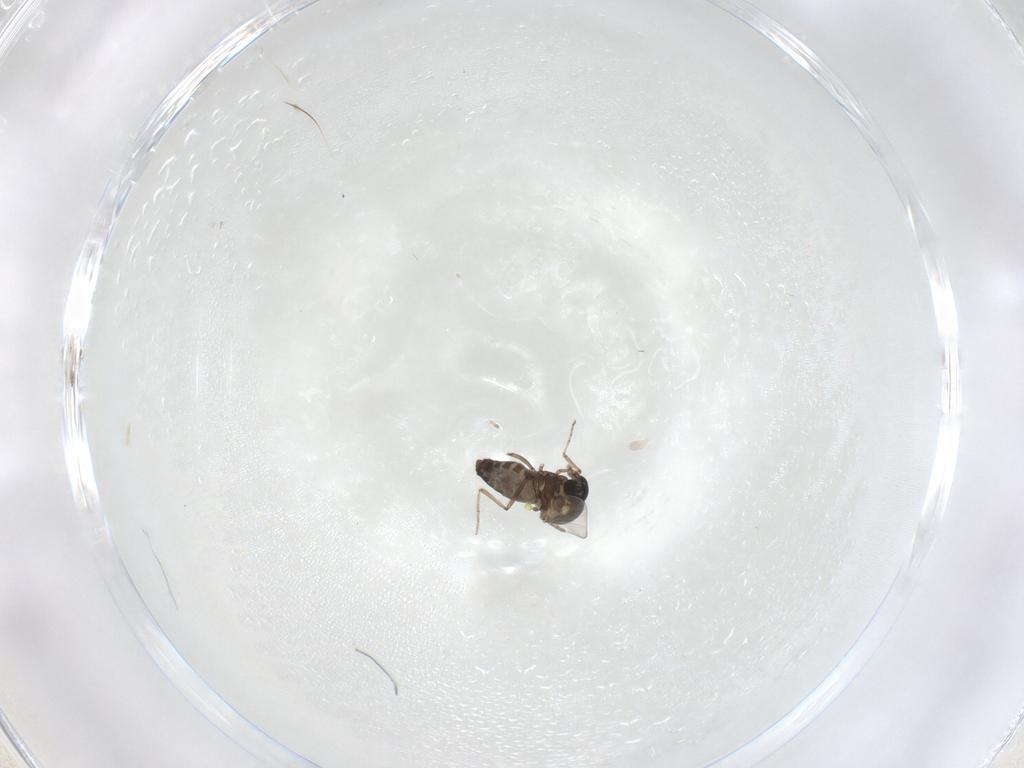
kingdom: Animalia
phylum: Arthropoda
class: Insecta
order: Diptera
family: Ceratopogonidae
